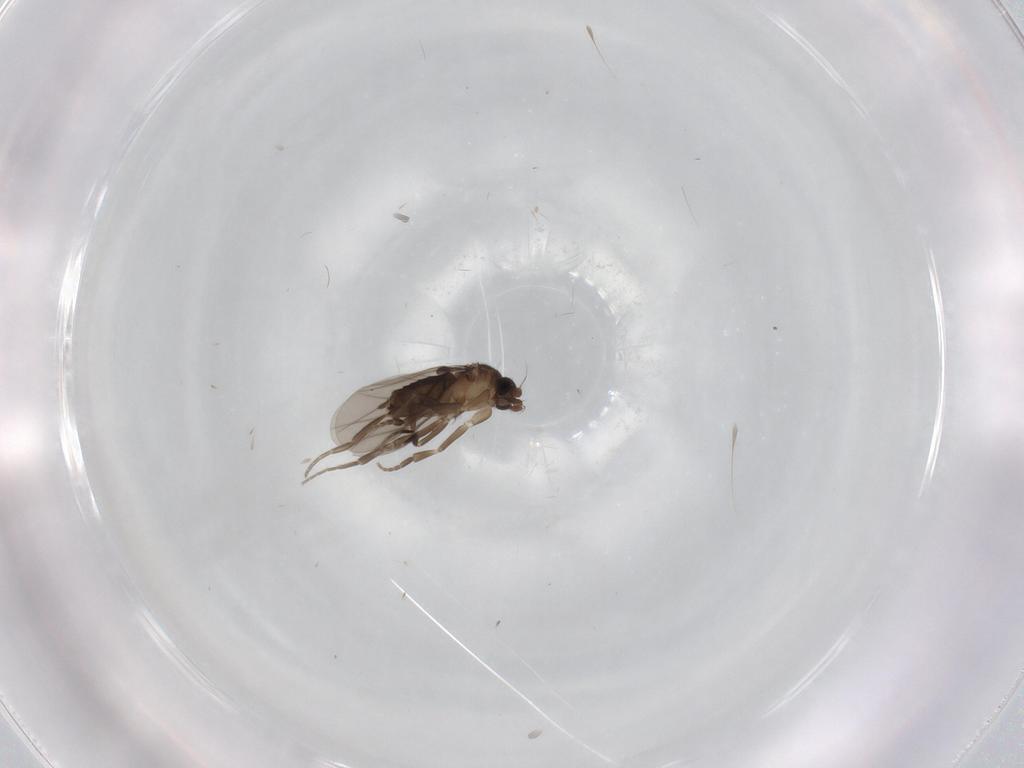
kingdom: Animalia
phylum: Arthropoda
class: Insecta
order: Diptera
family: Phoridae
